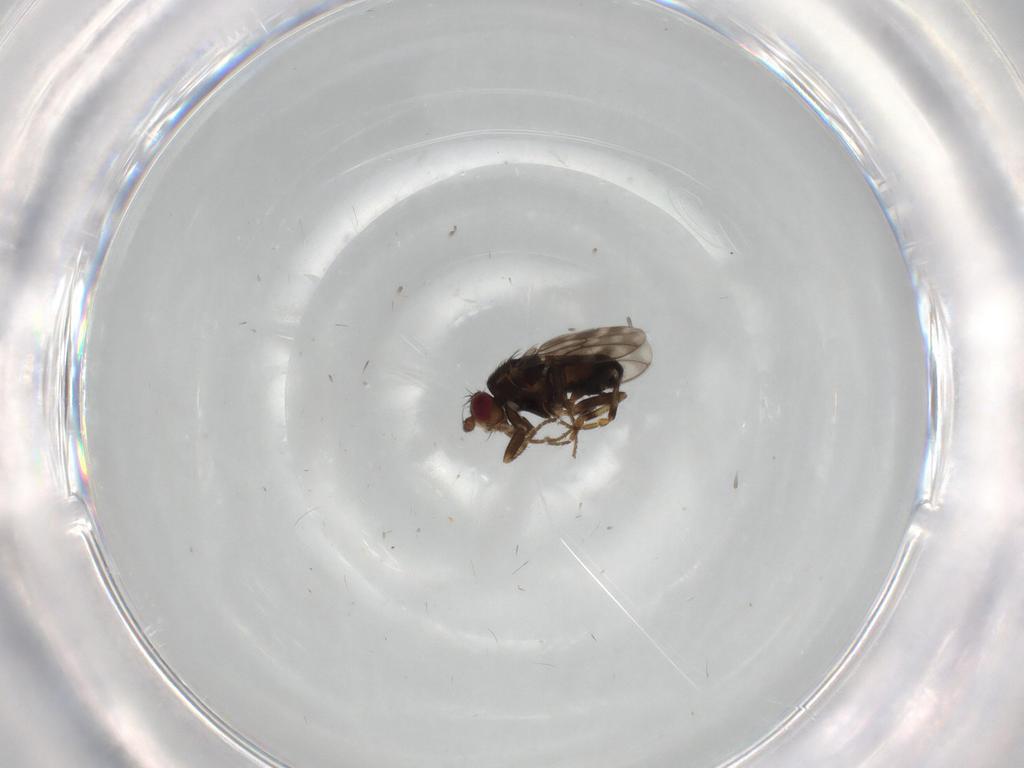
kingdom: Animalia
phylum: Arthropoda
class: Insecta
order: Diptera
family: Sphaeroceridae
